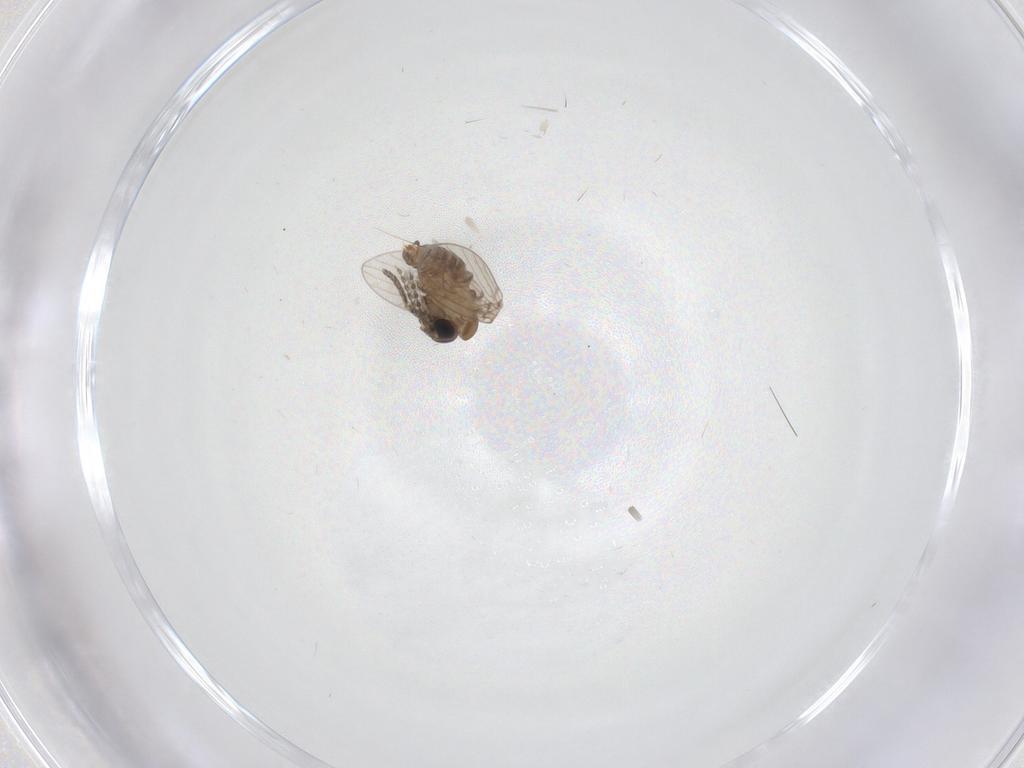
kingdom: Animalia
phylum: Arthropoda
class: Insecta
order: Diptera
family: Psychodidae
